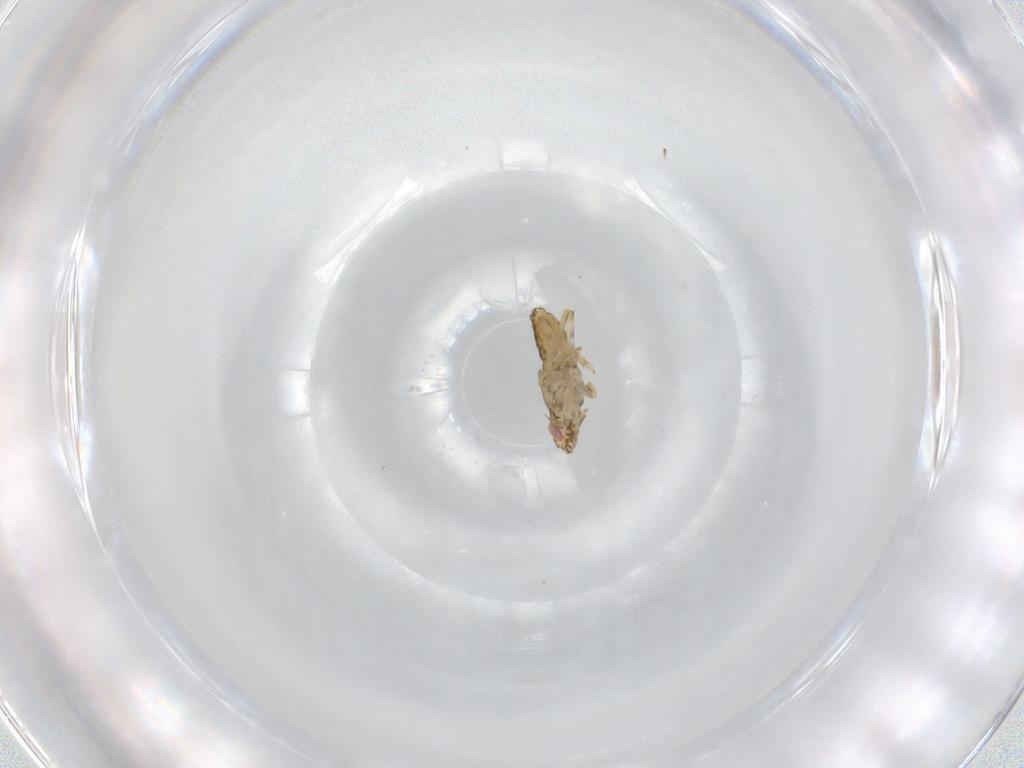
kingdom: Animalia
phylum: Arthropoda
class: Insecta
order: Hemiptera
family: Delphacidae
